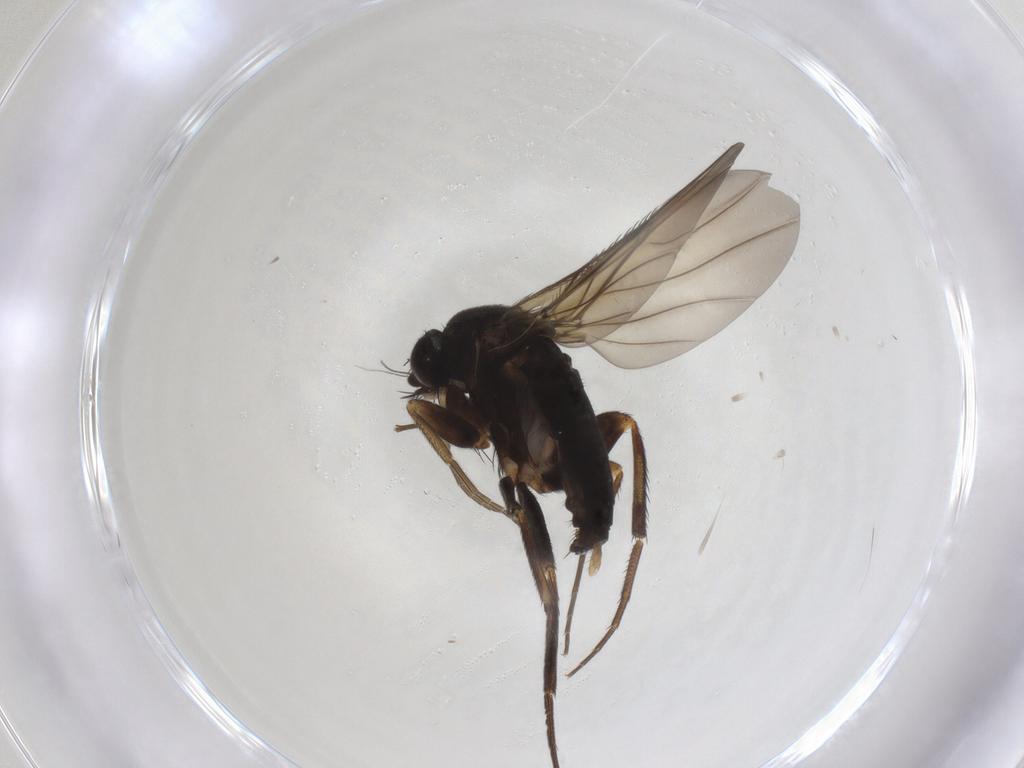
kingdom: Animalia
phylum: Arthropoda
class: Insecta
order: Diptera
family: Phoridae
